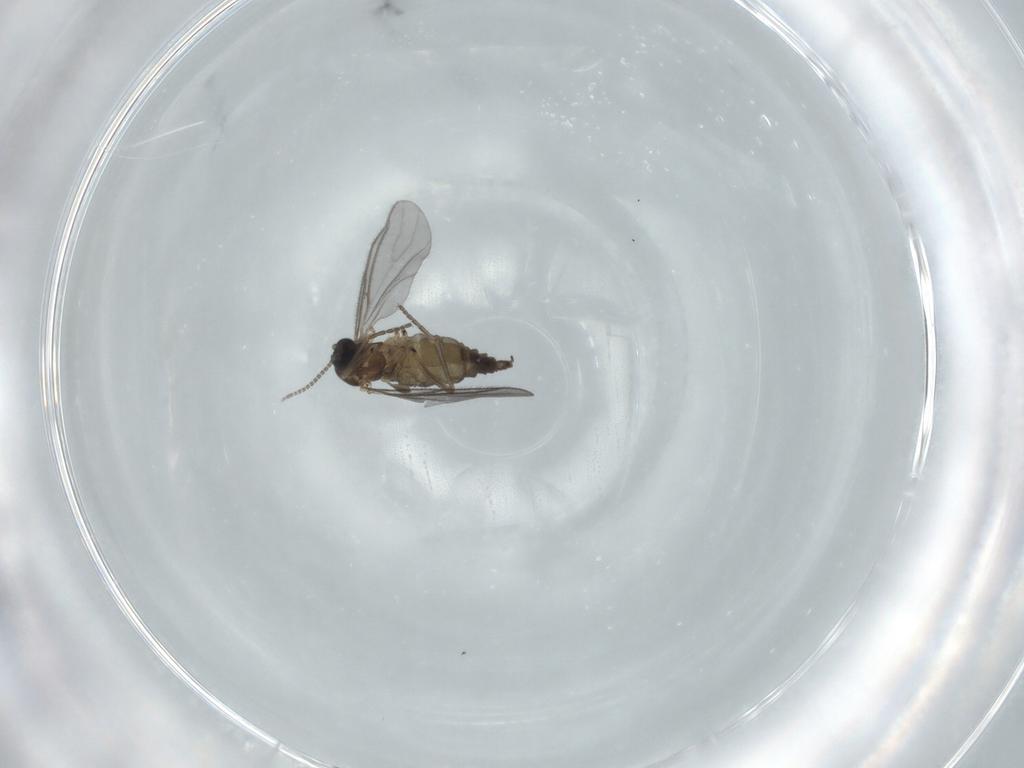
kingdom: Animalia
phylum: Arthropoda
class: Insecta
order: Diptera
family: Sciaridae
